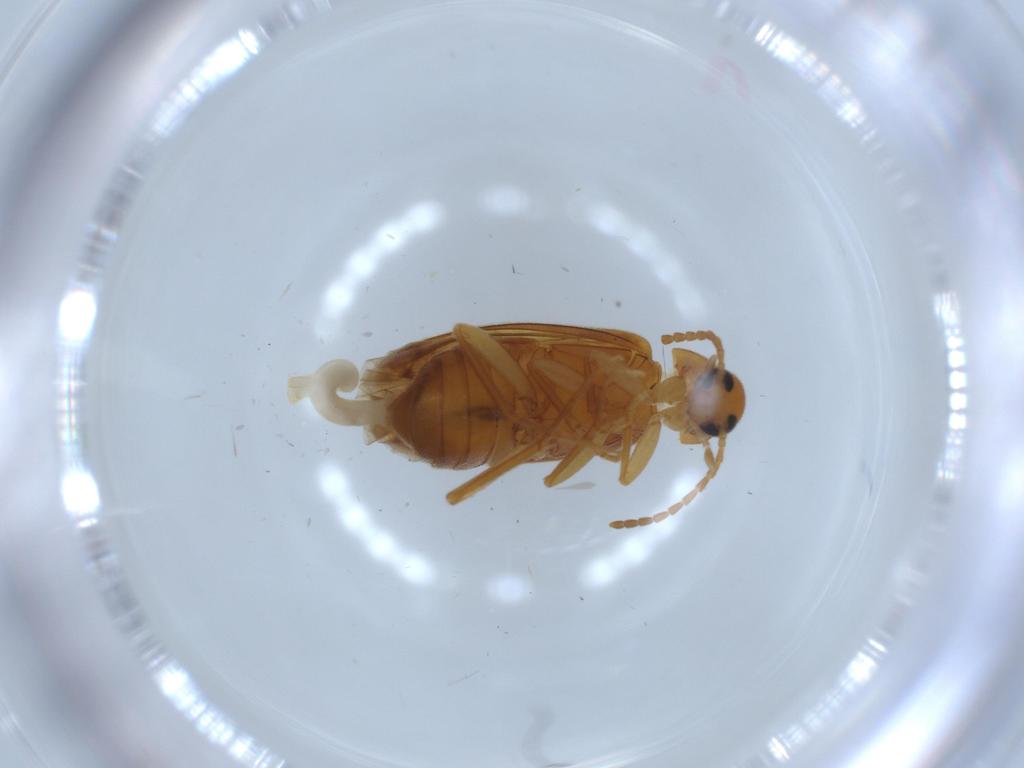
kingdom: Animalia
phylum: Arthropoda
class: Insecta
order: Coleoptera
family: Scraptiidae
